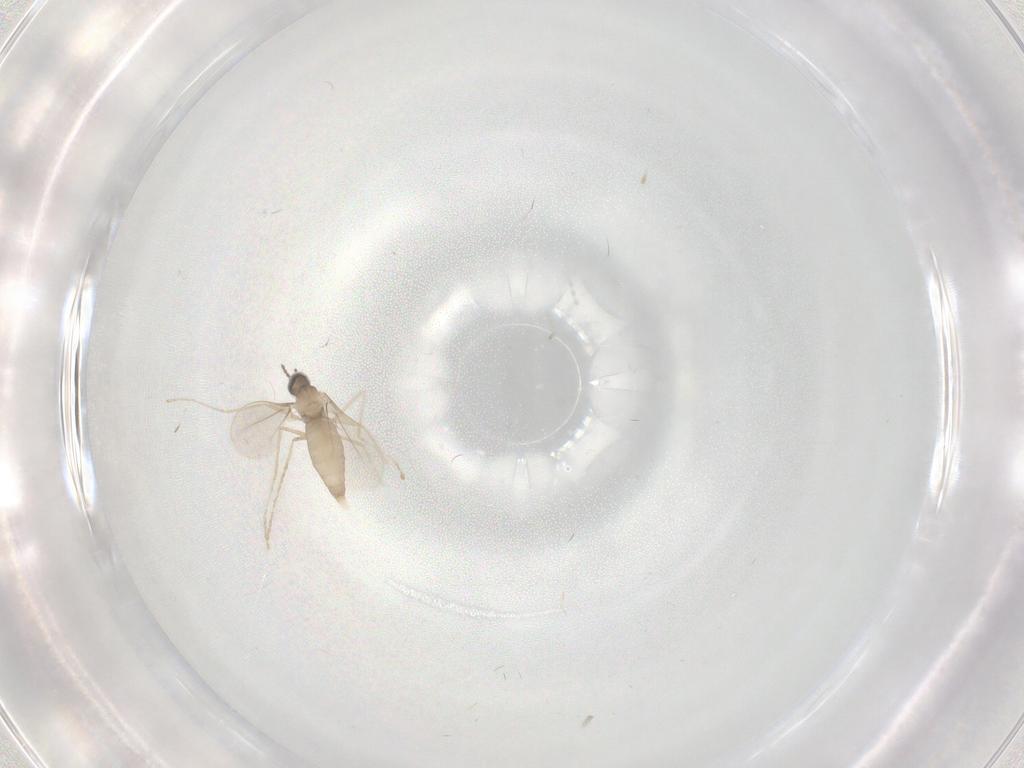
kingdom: Animalia
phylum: Arthropoda
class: Insecta
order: Diptera
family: Cecidomyiidae
